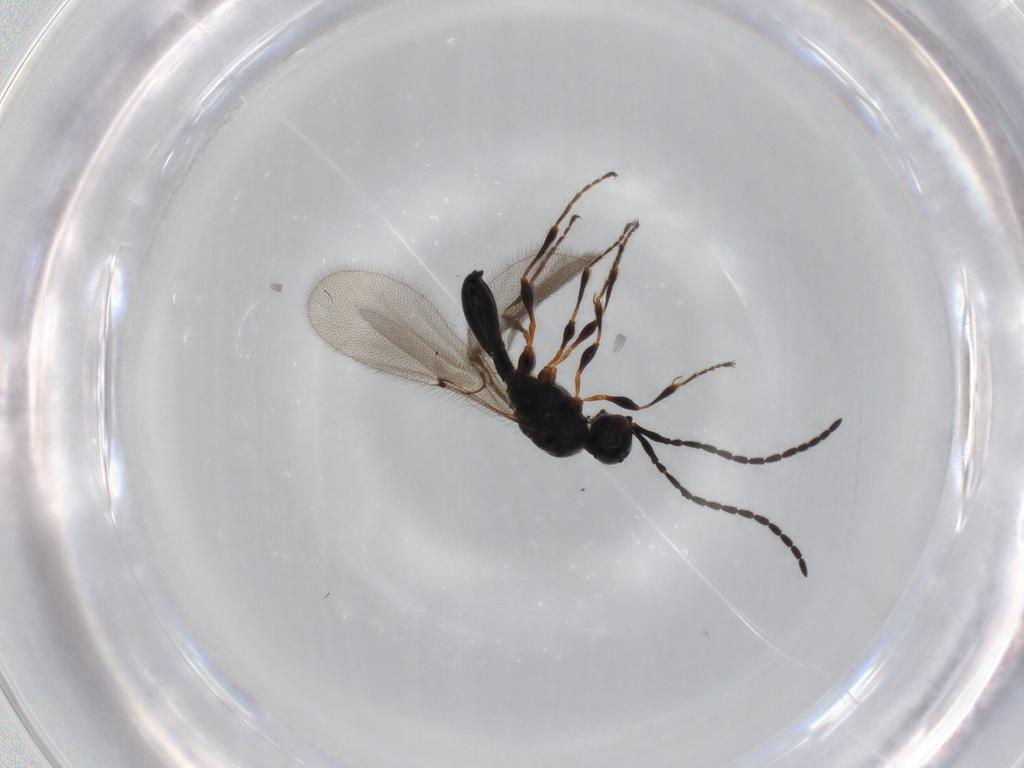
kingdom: Animalia
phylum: Arthropoda
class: Insecta
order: Hymenoptera
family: Diapriidae
